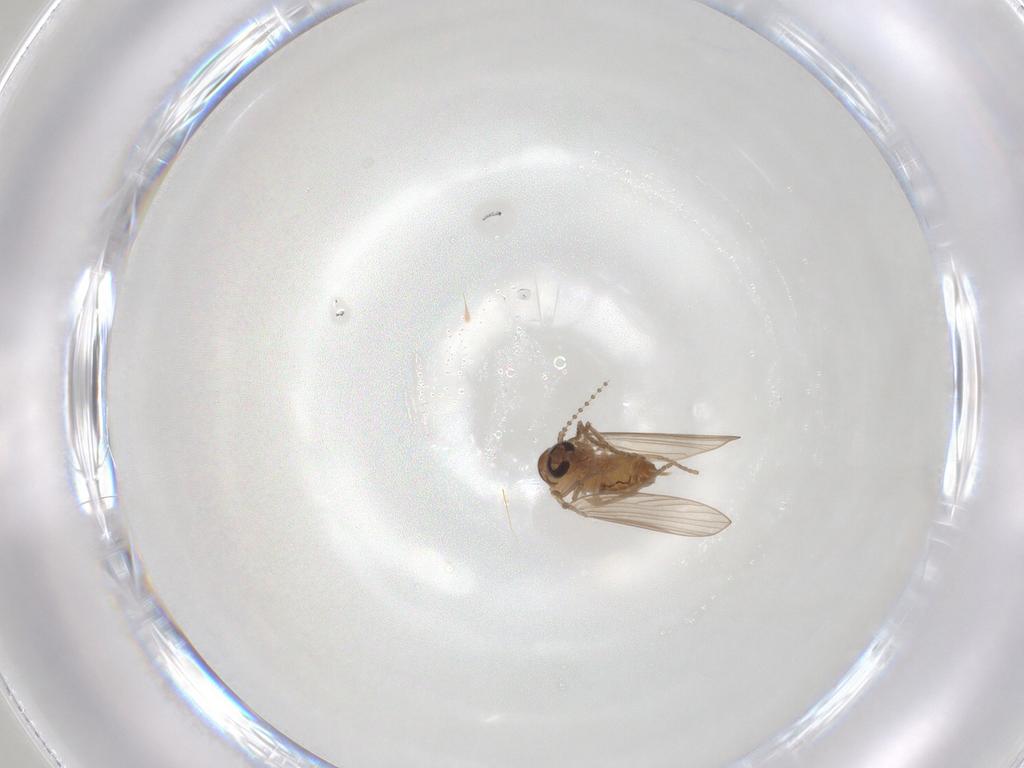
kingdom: Animalia
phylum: Arthropoda
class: Insecta
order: Diptera
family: Psychodidae
